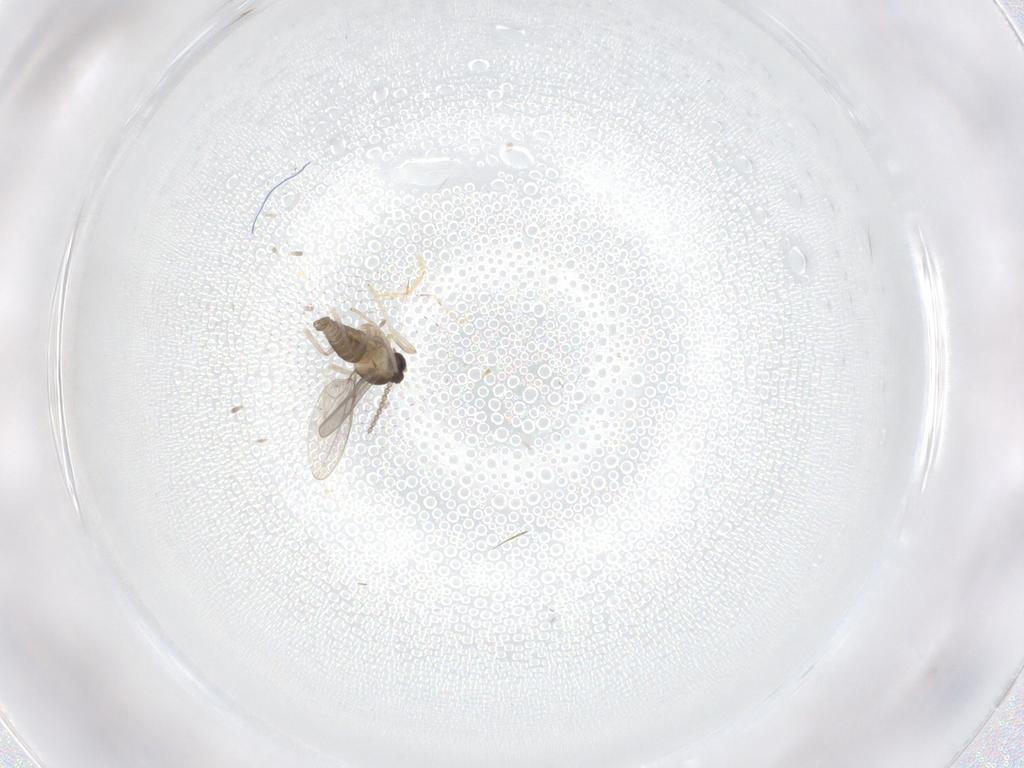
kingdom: Animalia
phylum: Arthropoda
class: Insecta
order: Diptera
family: Cecidomyiidae
